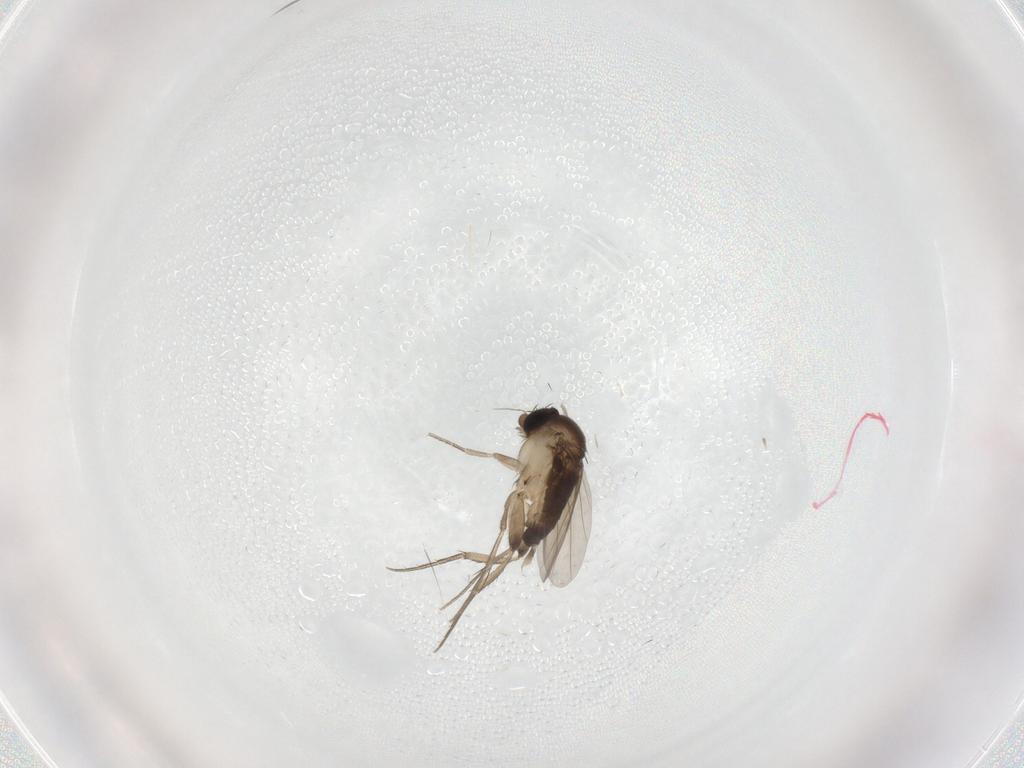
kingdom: Animalia
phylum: Arthropoda
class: Insecta
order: Diptera
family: Phoridae
